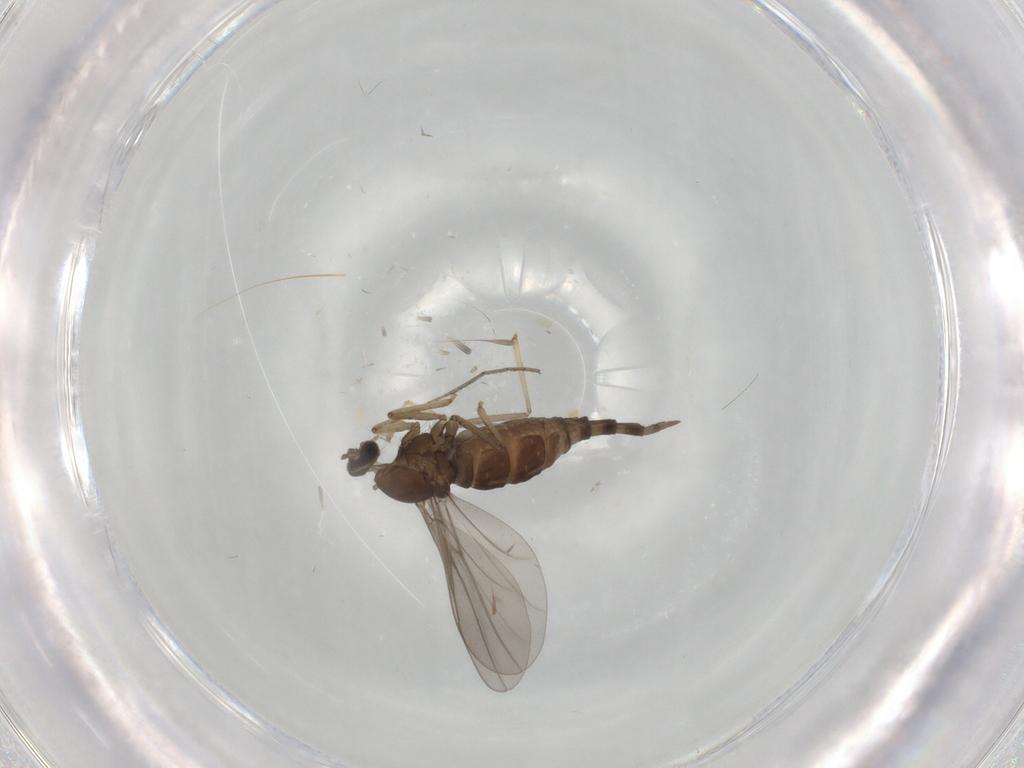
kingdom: Animalia
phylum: Arthropoda
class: Insecta
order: Diptera
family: Cecidomyiidae
